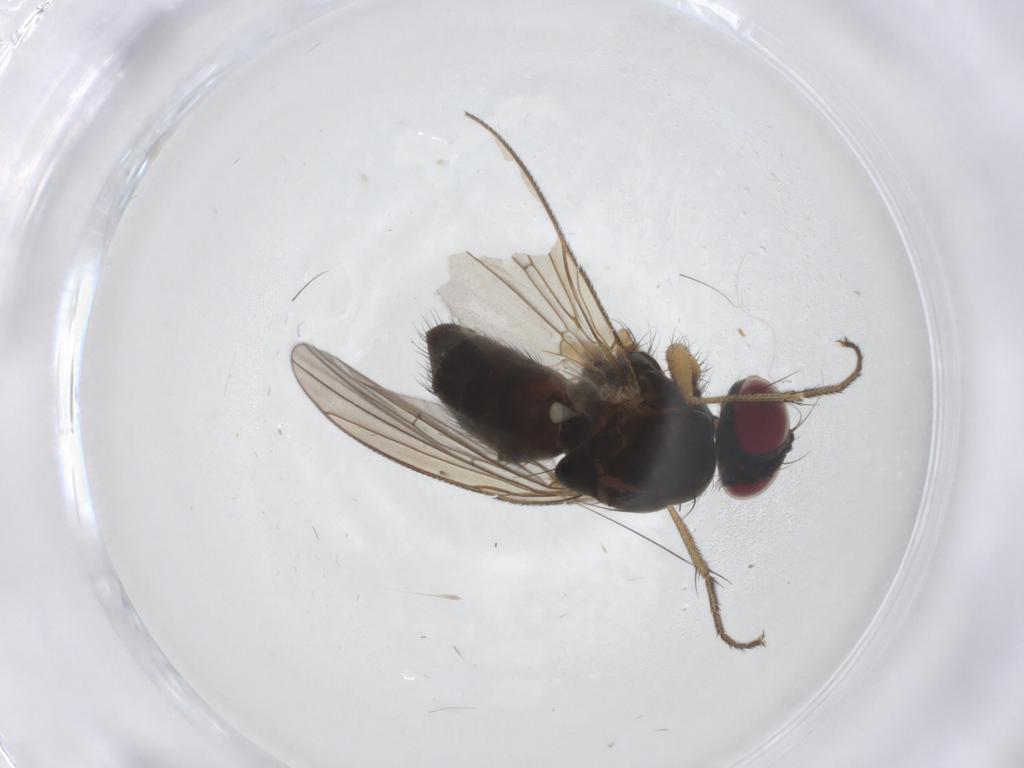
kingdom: Animalia
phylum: Arthropoda
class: Insecta
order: Diptera
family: Muscidae
